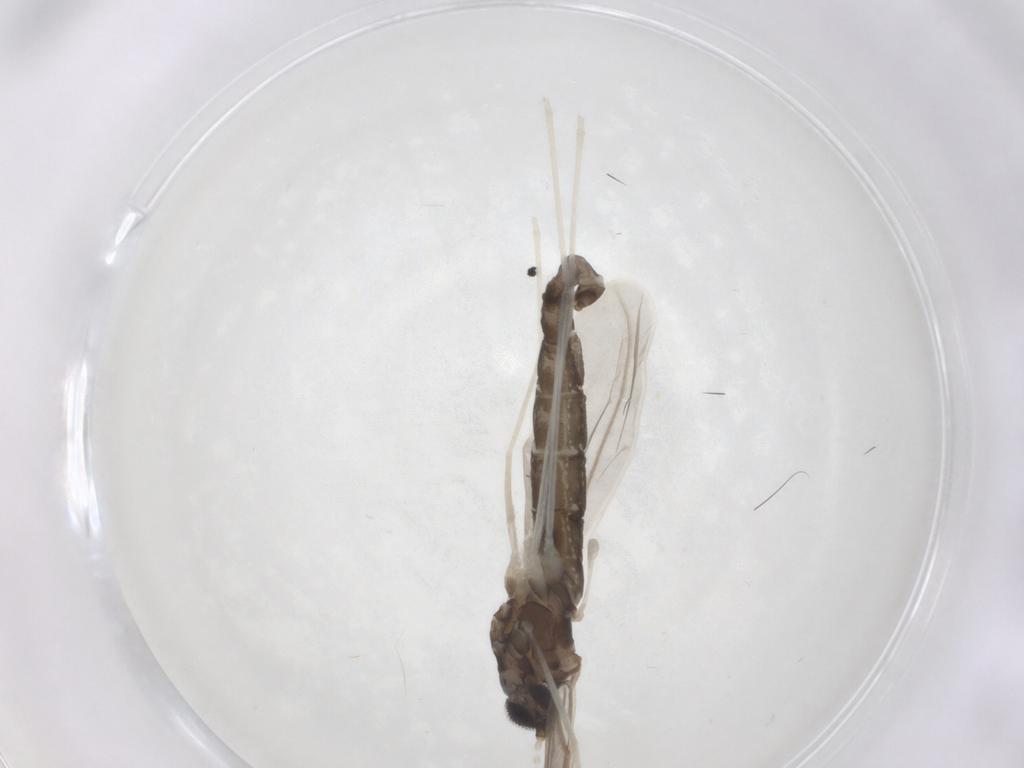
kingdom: Animalia
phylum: Arthropoda
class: Insecta
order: Diptera
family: Cecidomyiidae
